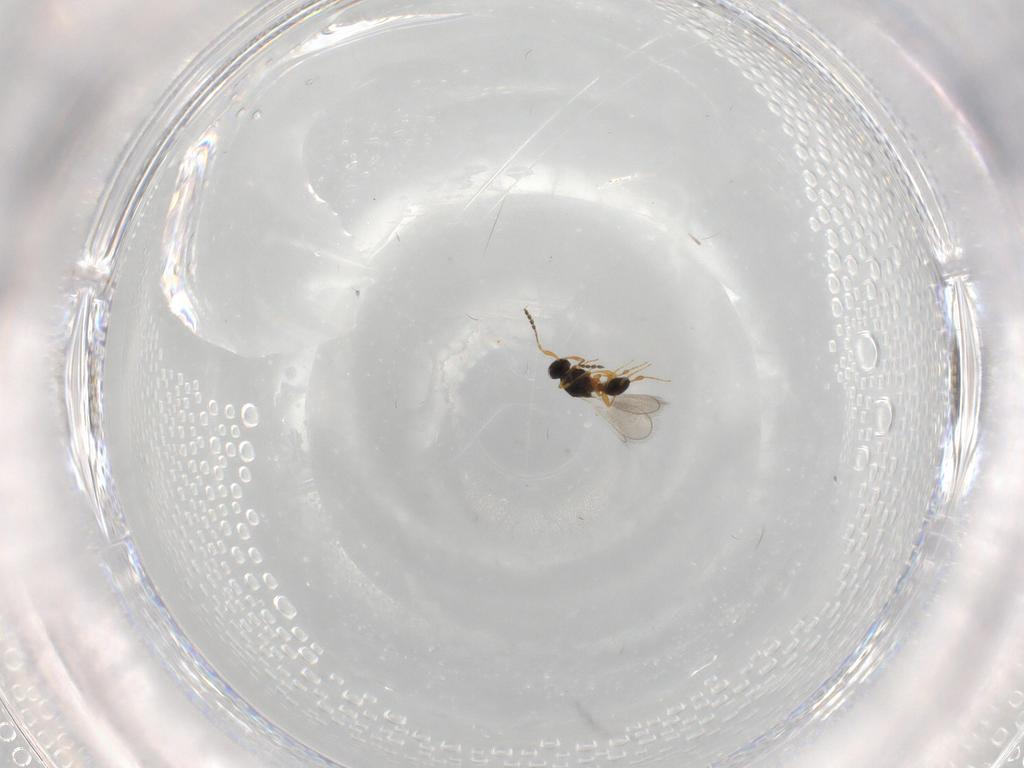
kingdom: Animalia
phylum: Arthropoda
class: Insecta
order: Hymenoptera
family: Platygastridae
